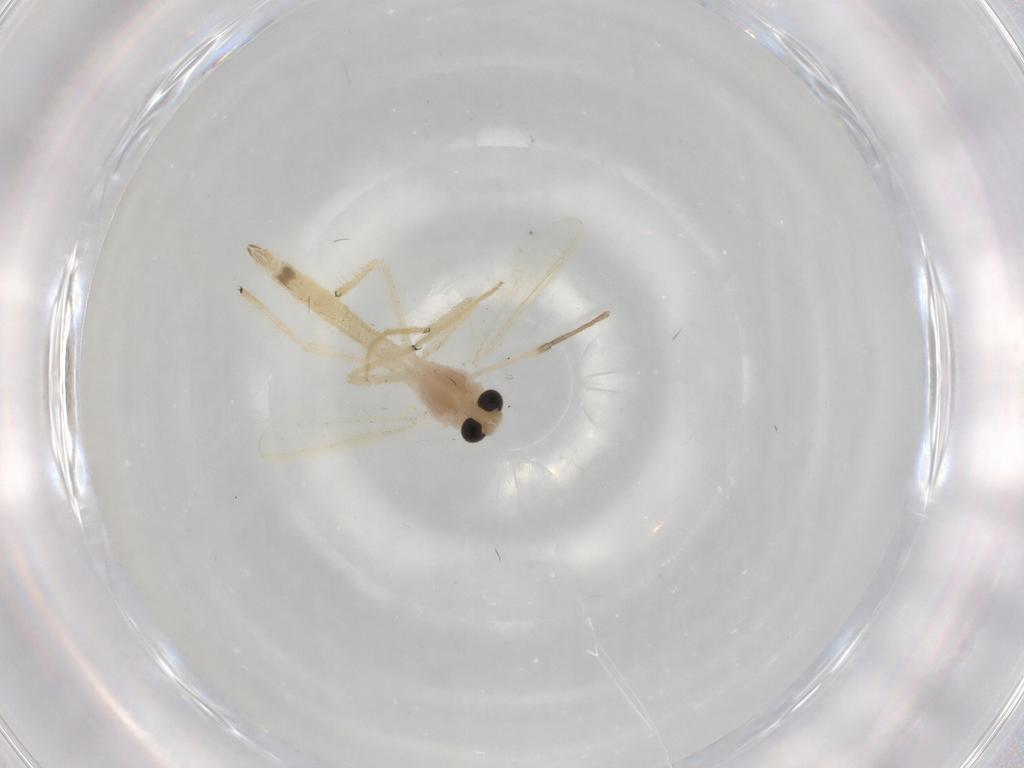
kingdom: Animalia
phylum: Arthropoda
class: Insecta
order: Diptera
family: Chironomidae
